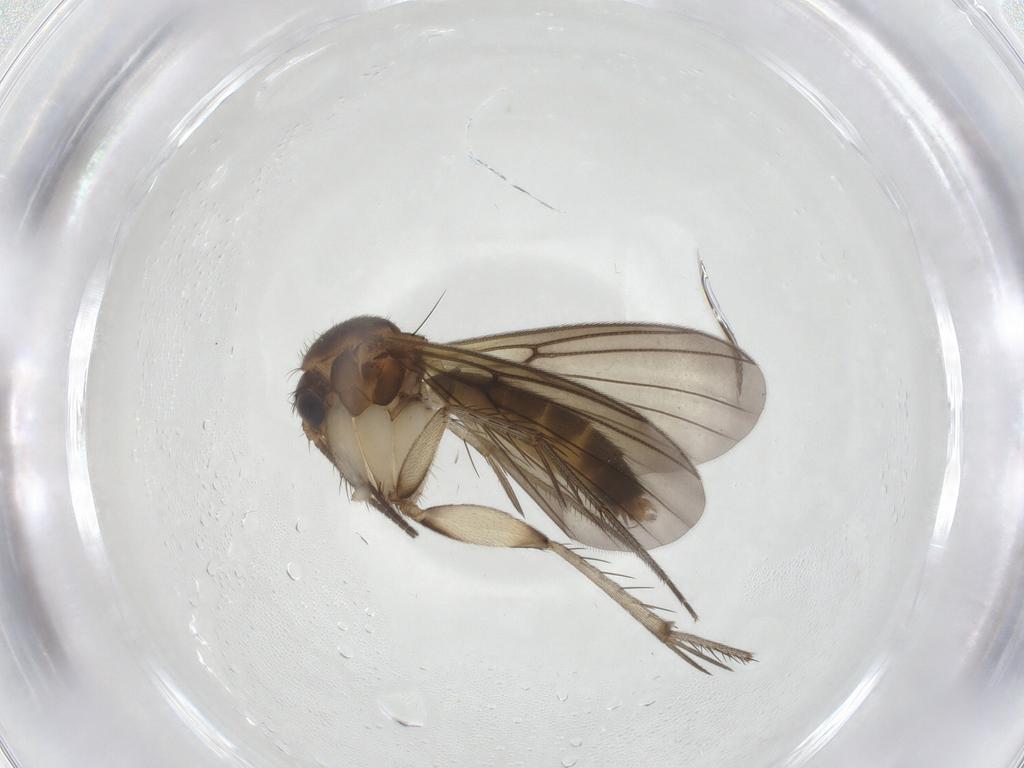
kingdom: Animalia
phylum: Arthropoda
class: Insecta
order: Diptera
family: Mycetophilidae
